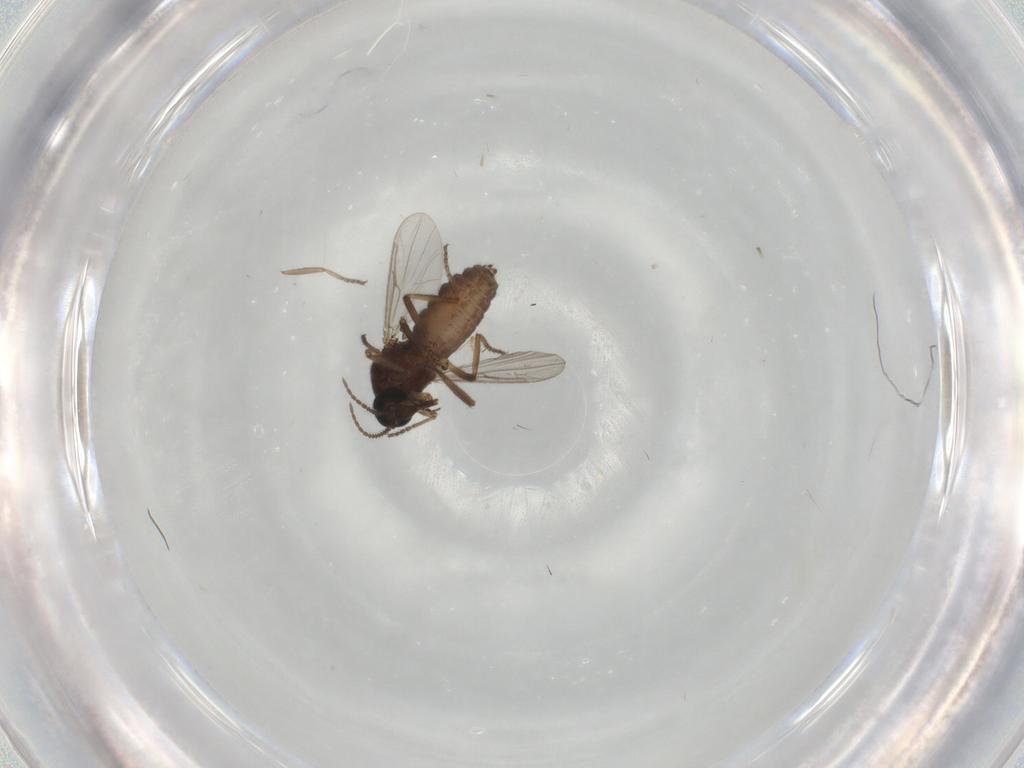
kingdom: Animalia
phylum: Arthropoda
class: Insecta
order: Diptera
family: Ceratopogonidae
